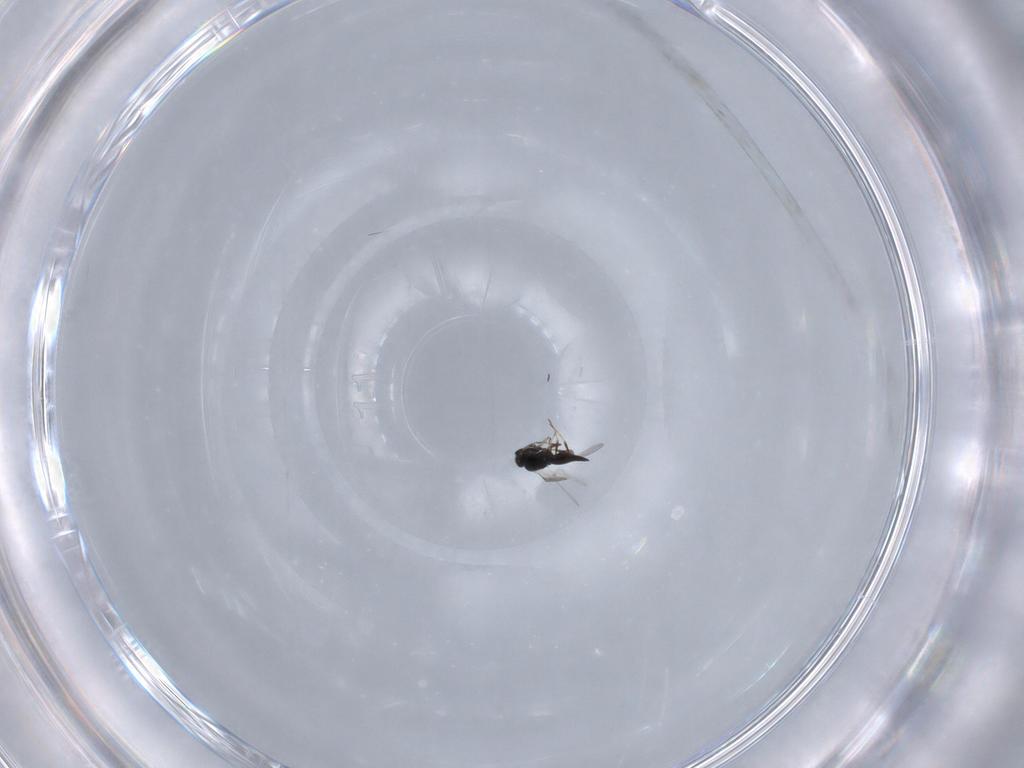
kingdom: Animalia
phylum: Arthropoda
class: Insecta
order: Hymenoptera
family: Scelionidae
